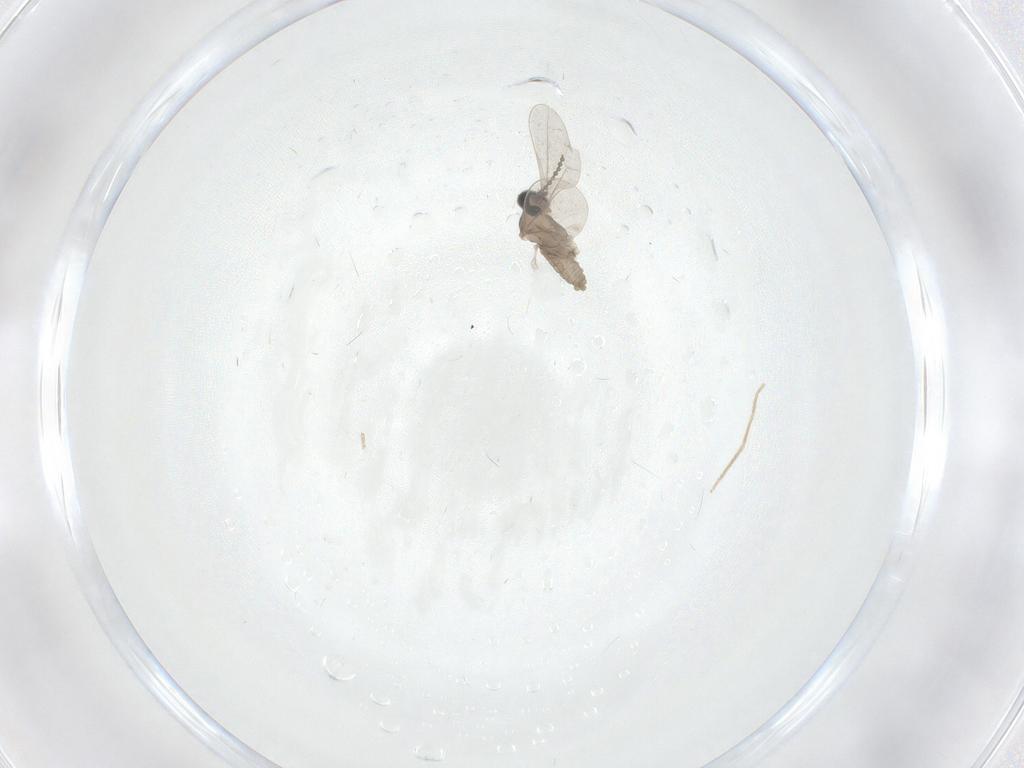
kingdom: Animalia
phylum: Arthropoda
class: Insecta
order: Diptera
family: Cecidomyiidae
